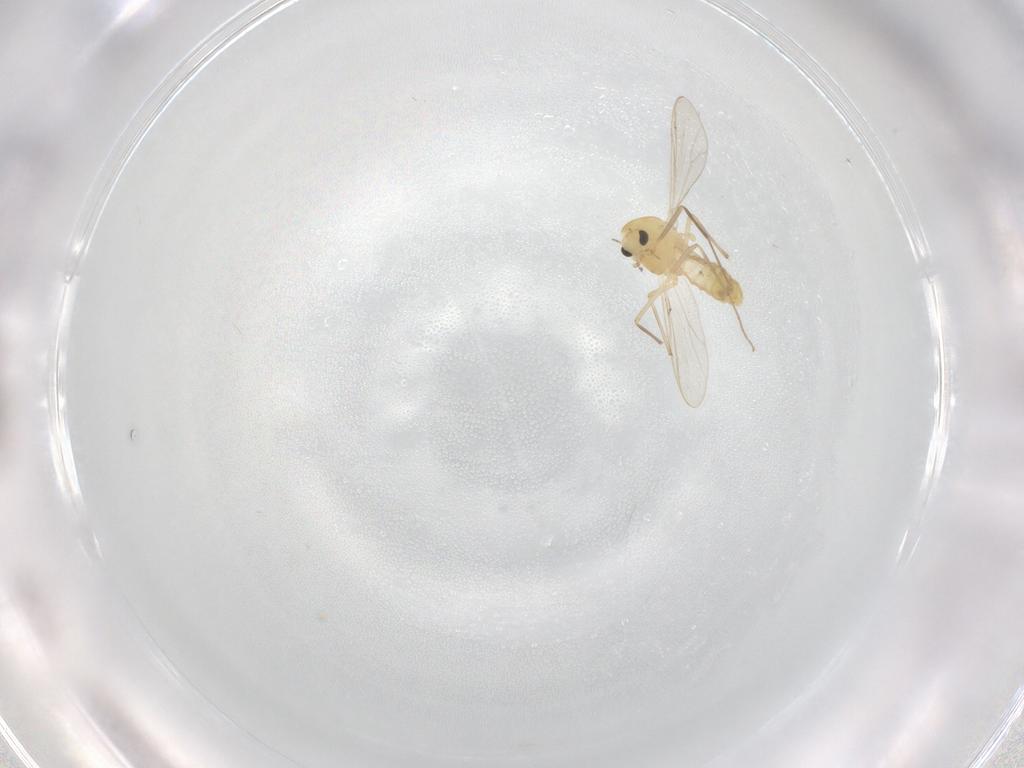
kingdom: Animalia
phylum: Arthropoda
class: Insecta
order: Diptera
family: Chironomidae
